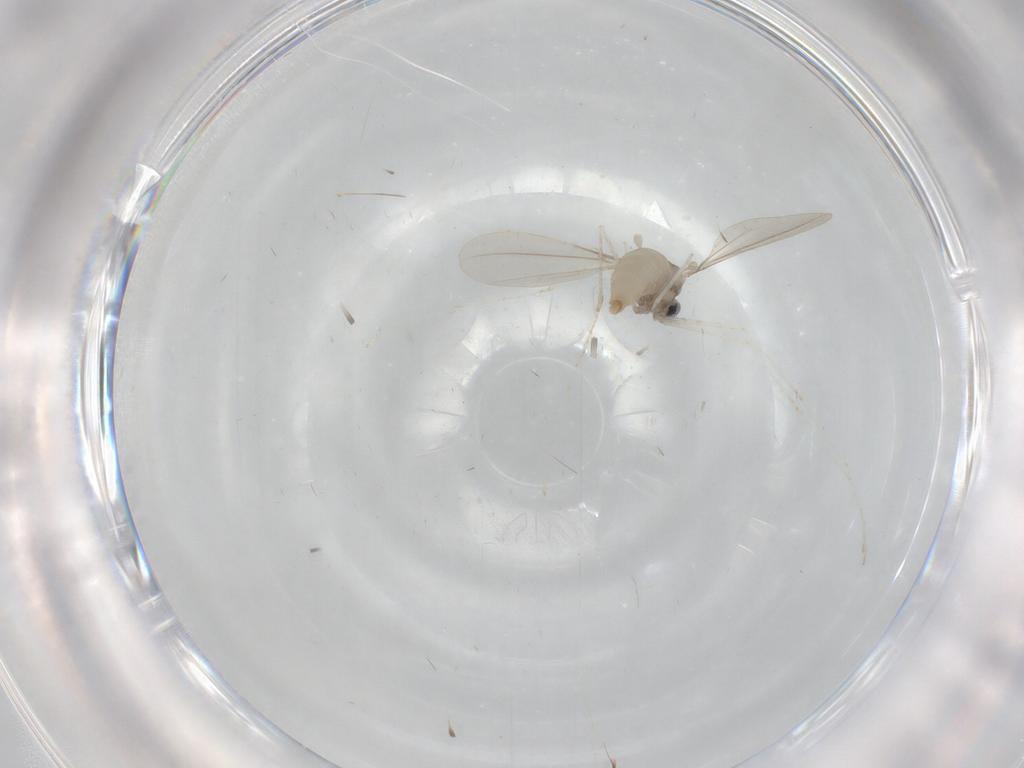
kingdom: Animalia
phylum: Arthropoda
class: Insecta
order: Diptera
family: Cecidomyiidae
